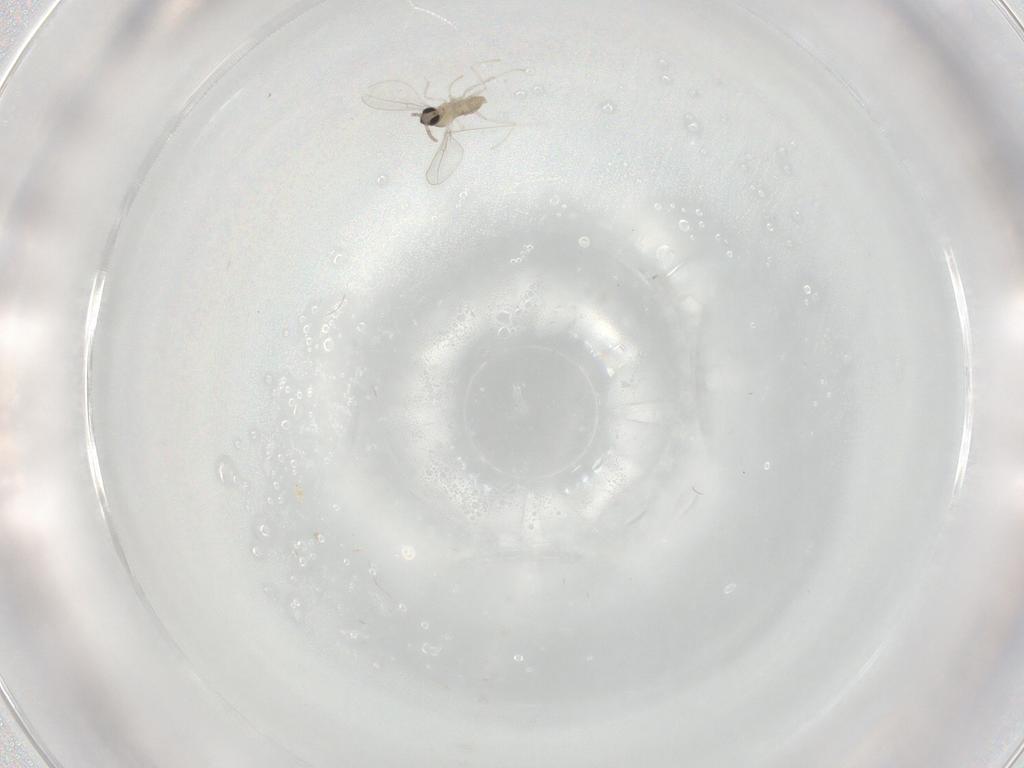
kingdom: Animalia
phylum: Arthropoda
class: Insecta
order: Diptera
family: Cecidomyiidae
